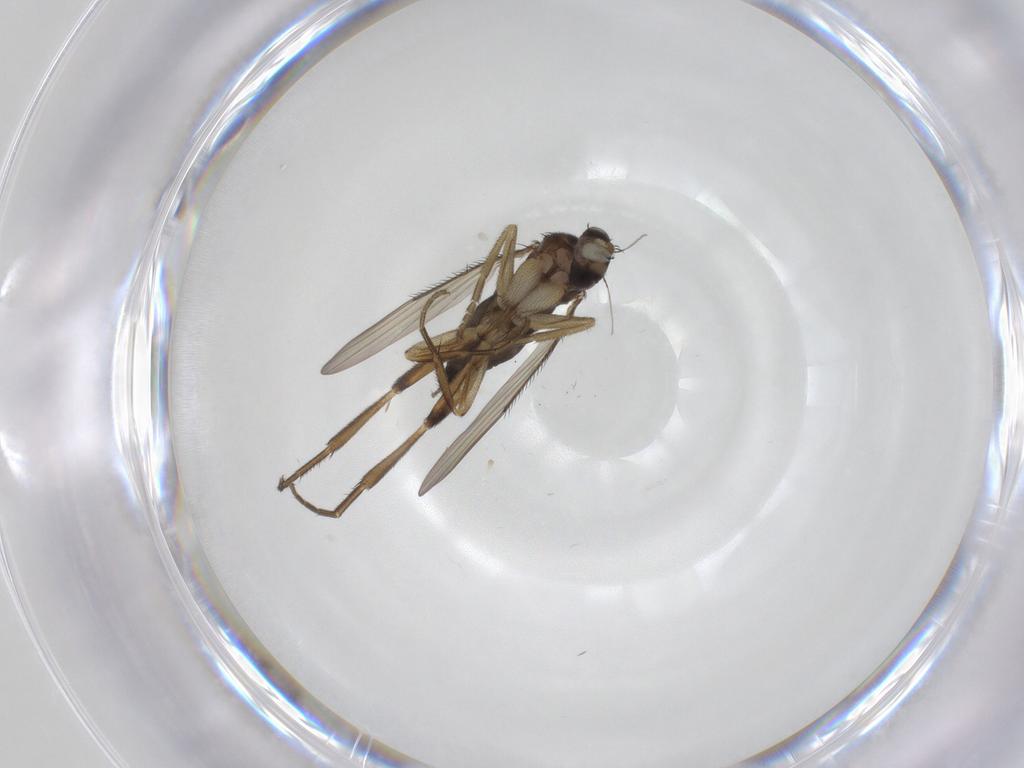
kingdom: Animalia
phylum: Arthropoda
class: Insecta
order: Diptera
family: Phoridae
